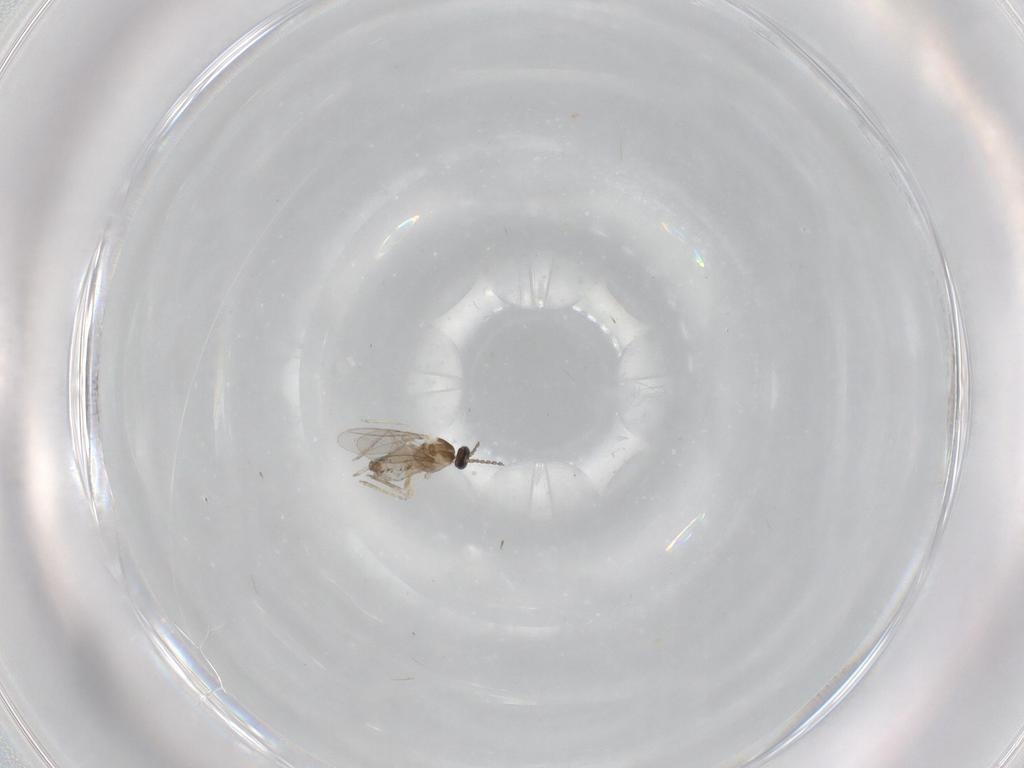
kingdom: Animalia
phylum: Arthropoda
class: Insecta
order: Diptera
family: Cecidomyiidae
